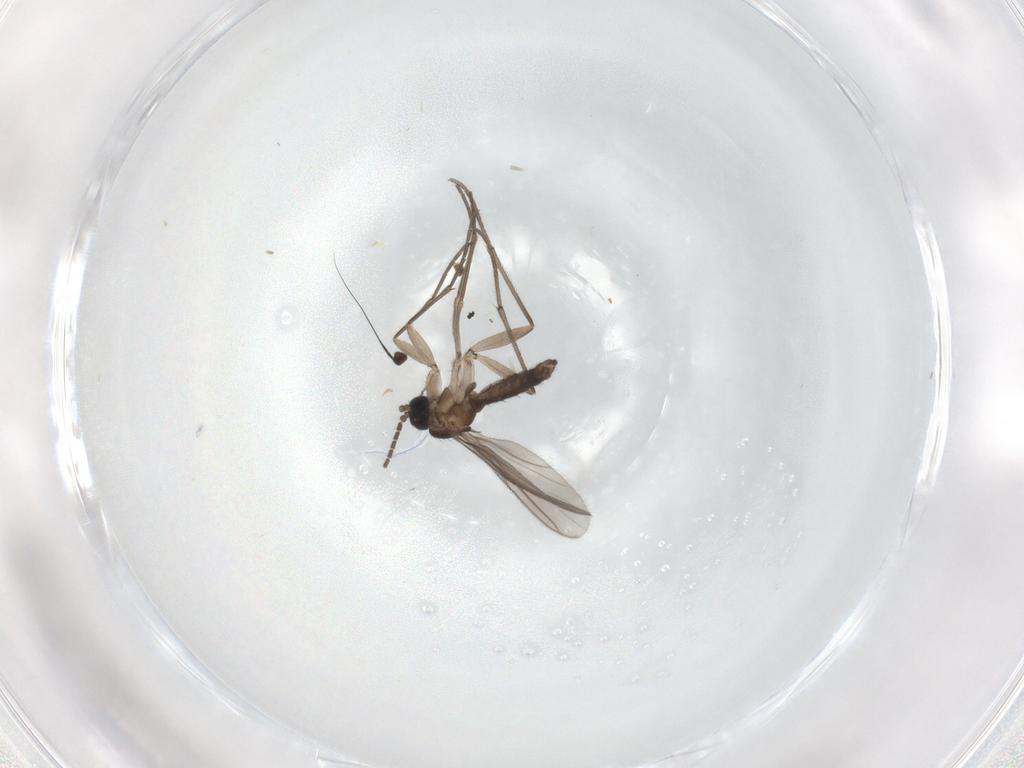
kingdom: Animalia
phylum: Arthropoda
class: Insecta
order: Diptera
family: Sciaridae
